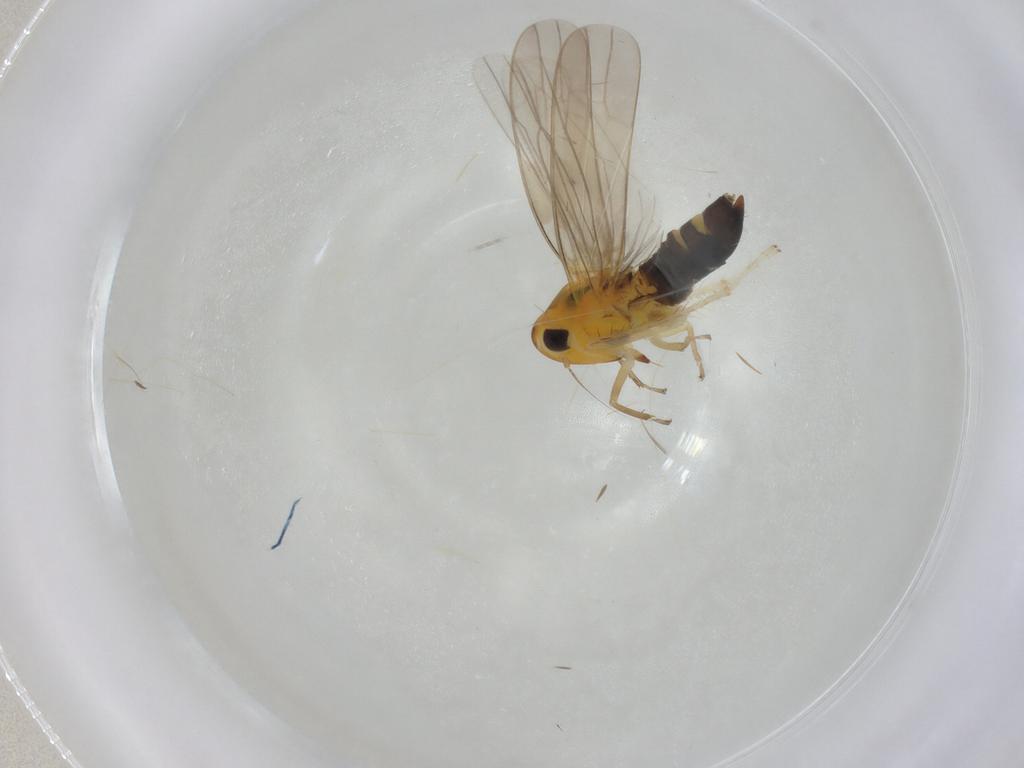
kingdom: Animalia
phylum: Arthropoda
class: Insecta
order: Hemiptera
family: Cicadellidae
